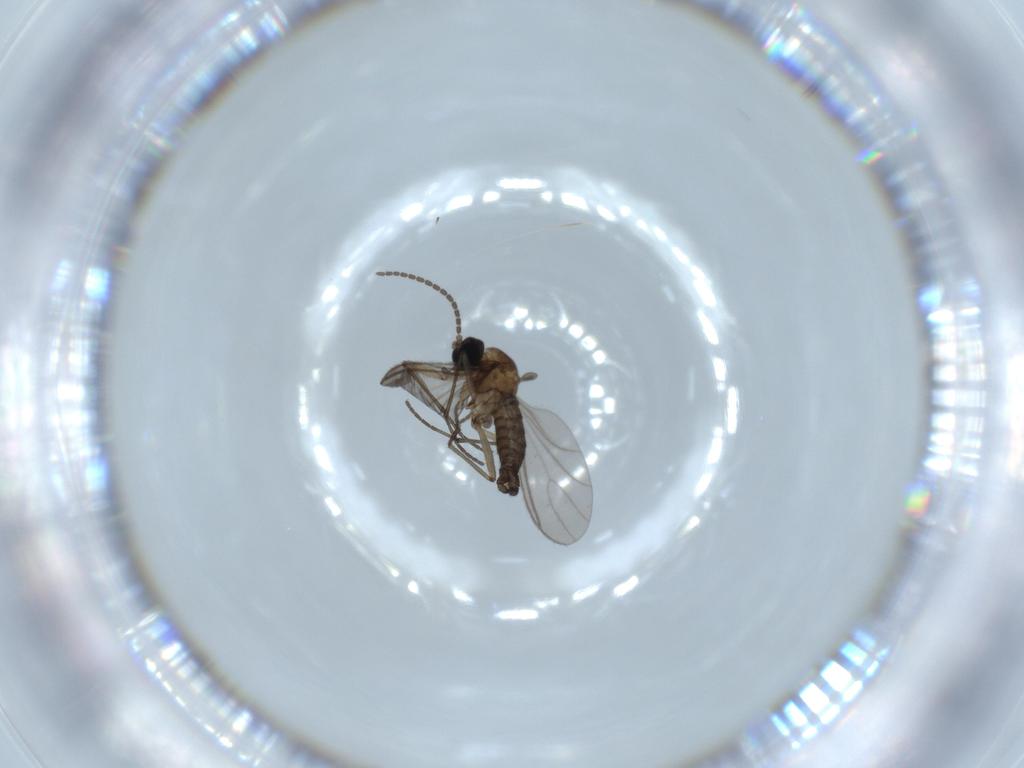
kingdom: Animalia
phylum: Arthropoda
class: Insecta
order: Diptera
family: Sciaridae
